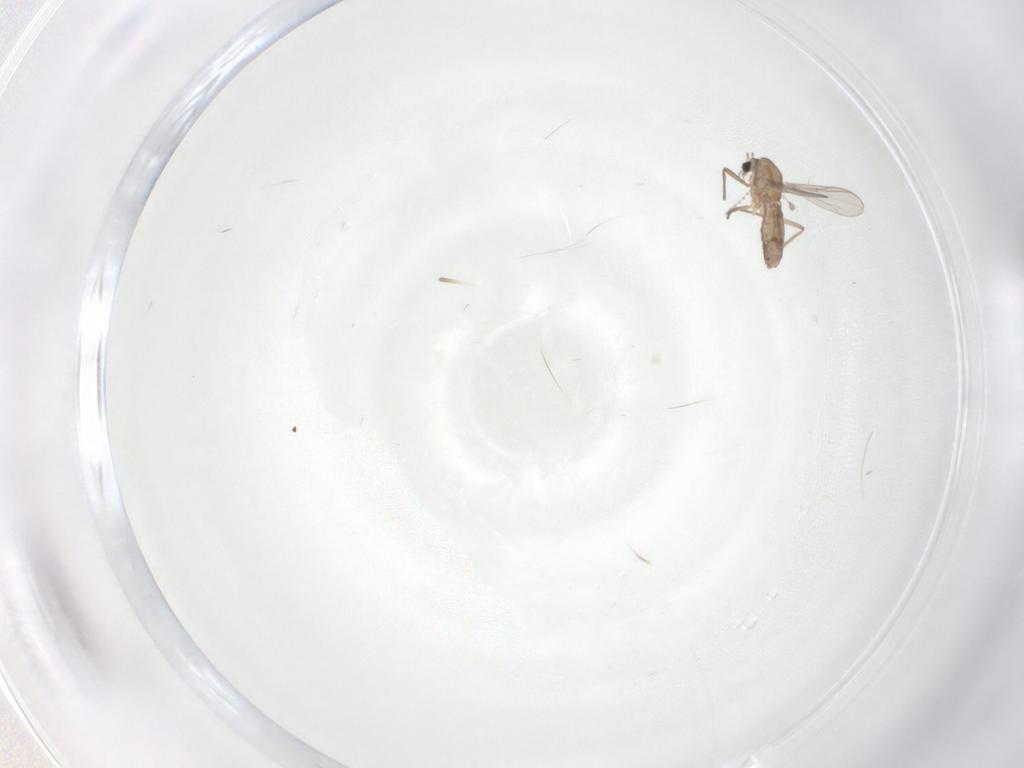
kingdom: Animalia
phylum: Arthropoda
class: Insecta
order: Diptera
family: Chironomidae
